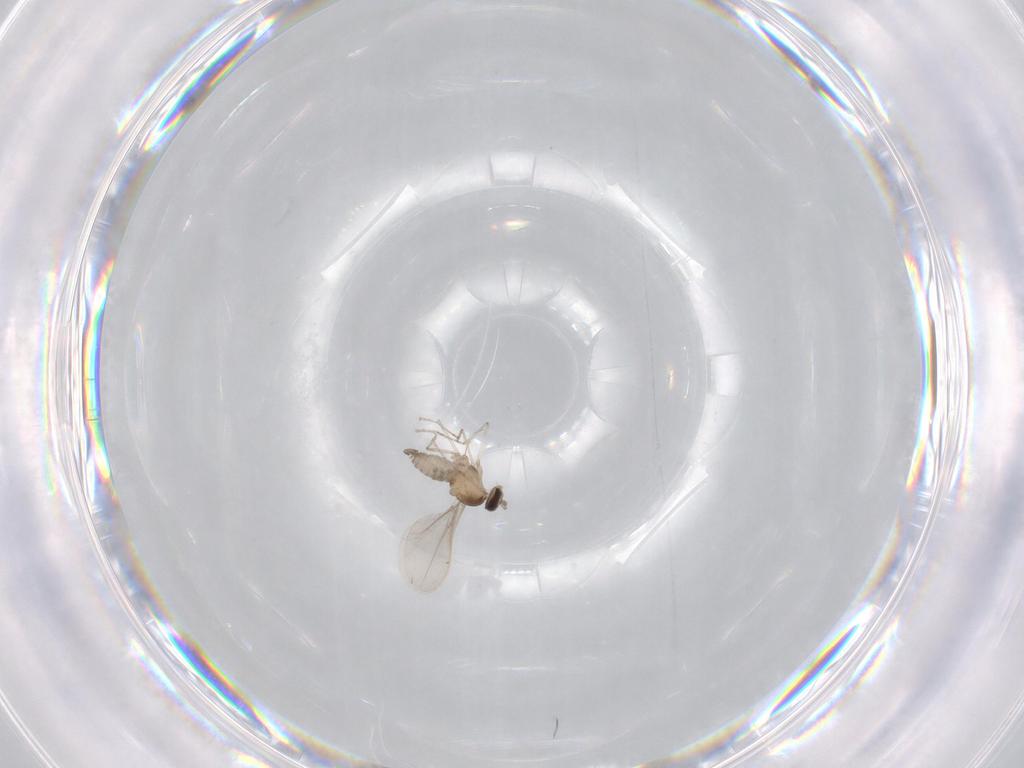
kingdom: Animalia
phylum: Arthropoda
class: Insecta
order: Diptera
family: Cecidomyiidae
